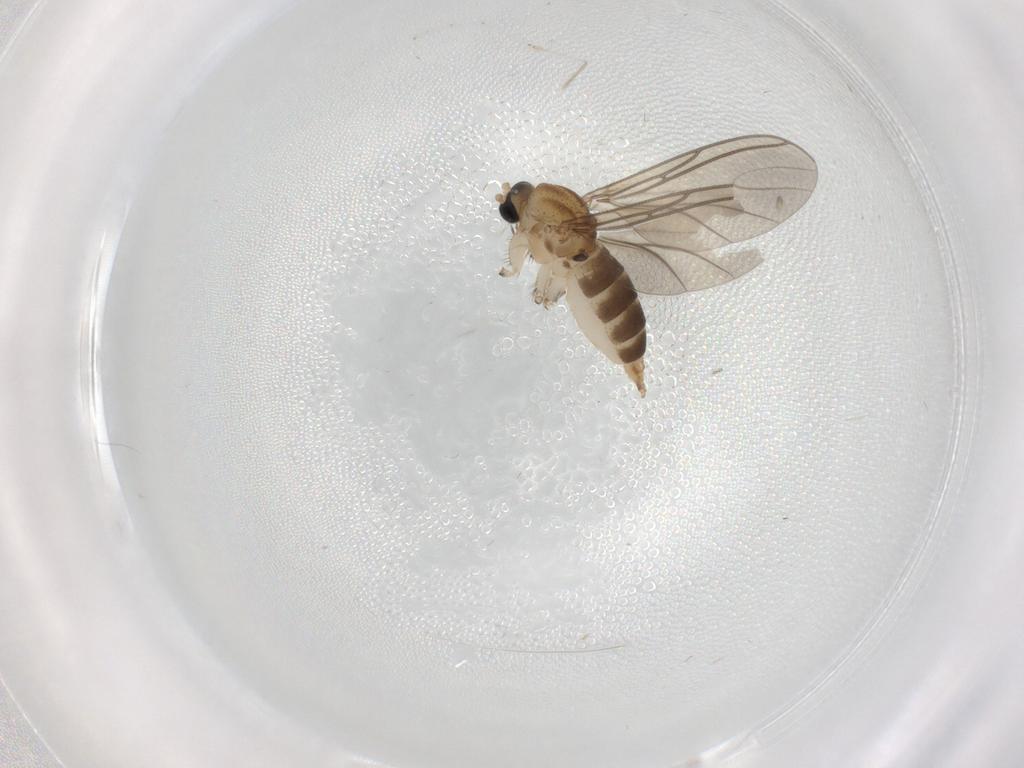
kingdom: Animalia
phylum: Arthropoda
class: Insecta
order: Diptera
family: Sciaridae
